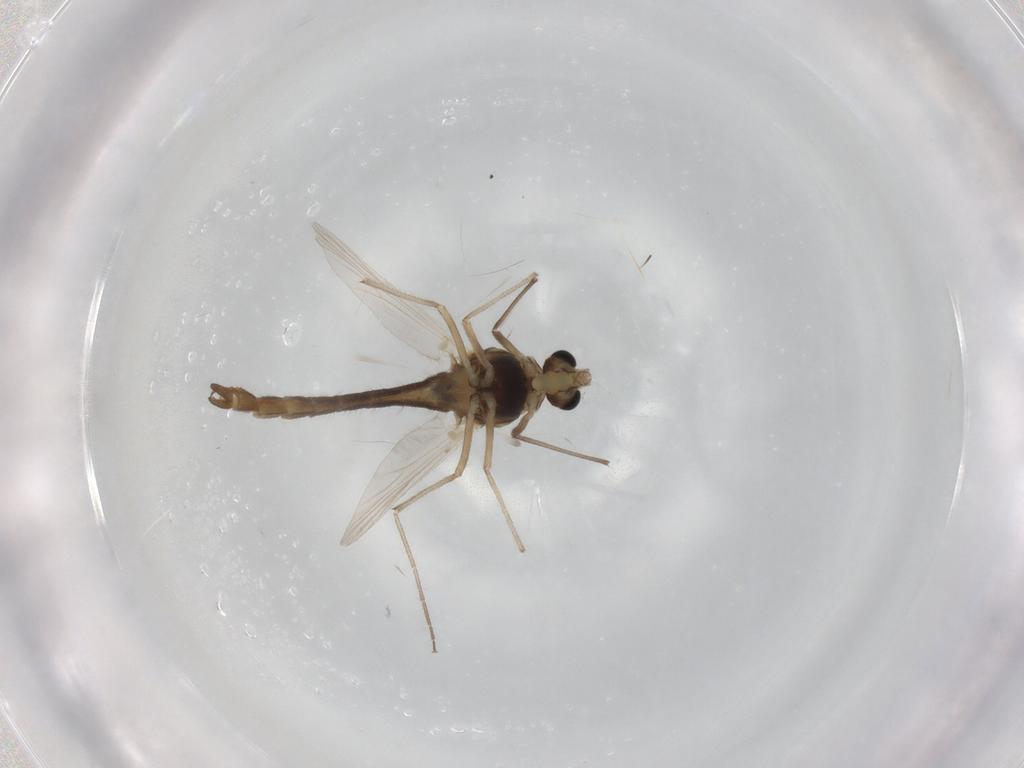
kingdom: Animalia
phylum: Arthropoda
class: Insecta
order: Diptera
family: Chironomidae
